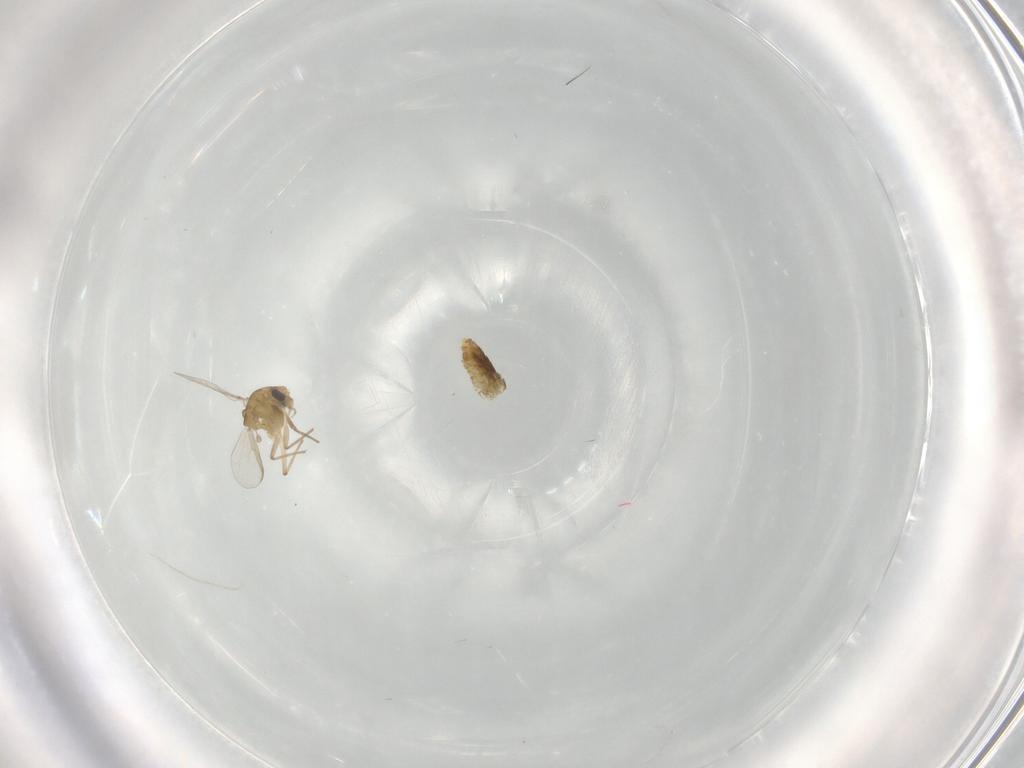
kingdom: Animalia
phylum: Arthropoda
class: Insecta
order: Diptera
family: Chironomidae
